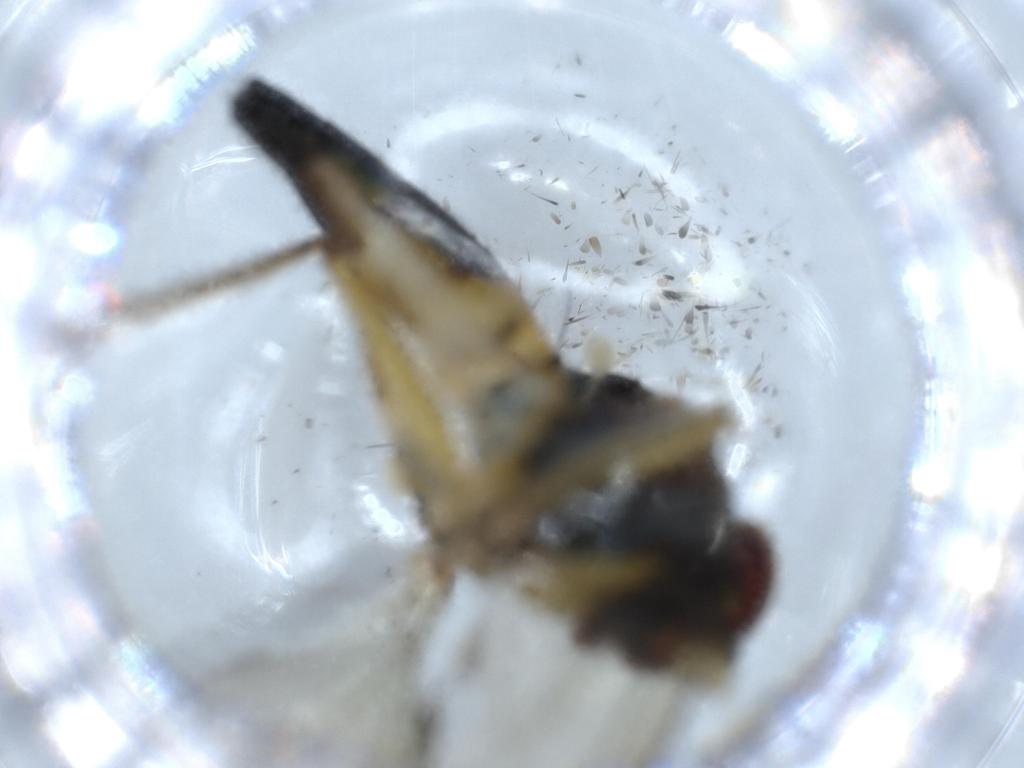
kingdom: Animalia
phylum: Arthropoda
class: Insecta
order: Diptera
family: Dolichopodidae
